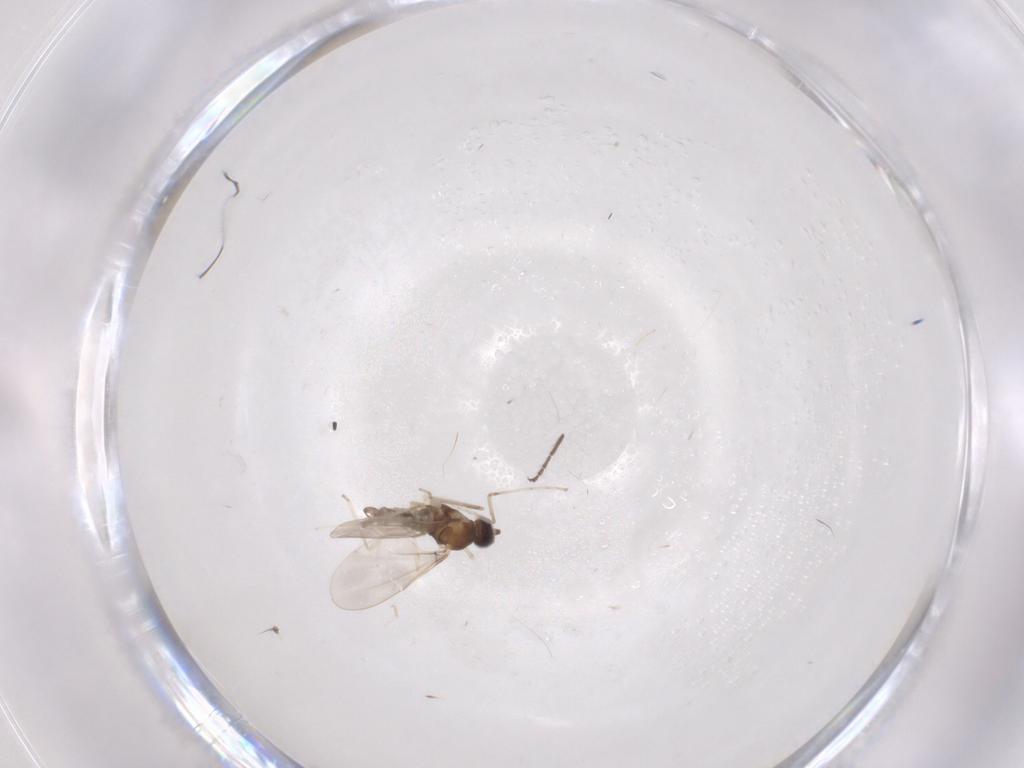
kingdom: Animalia
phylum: Arthropoda
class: Insecta
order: Diptera
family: Cecidomyiidae
